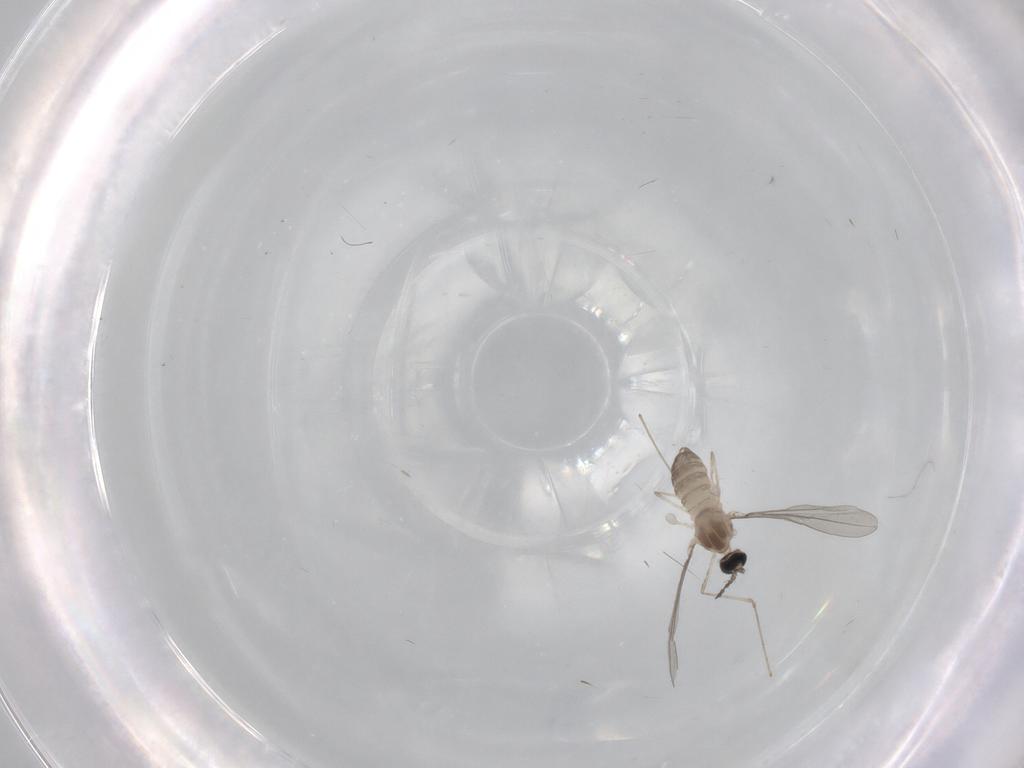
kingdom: Animalia
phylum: Arthropoda
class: Insecta
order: Diptera
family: Cecidomyiidae
